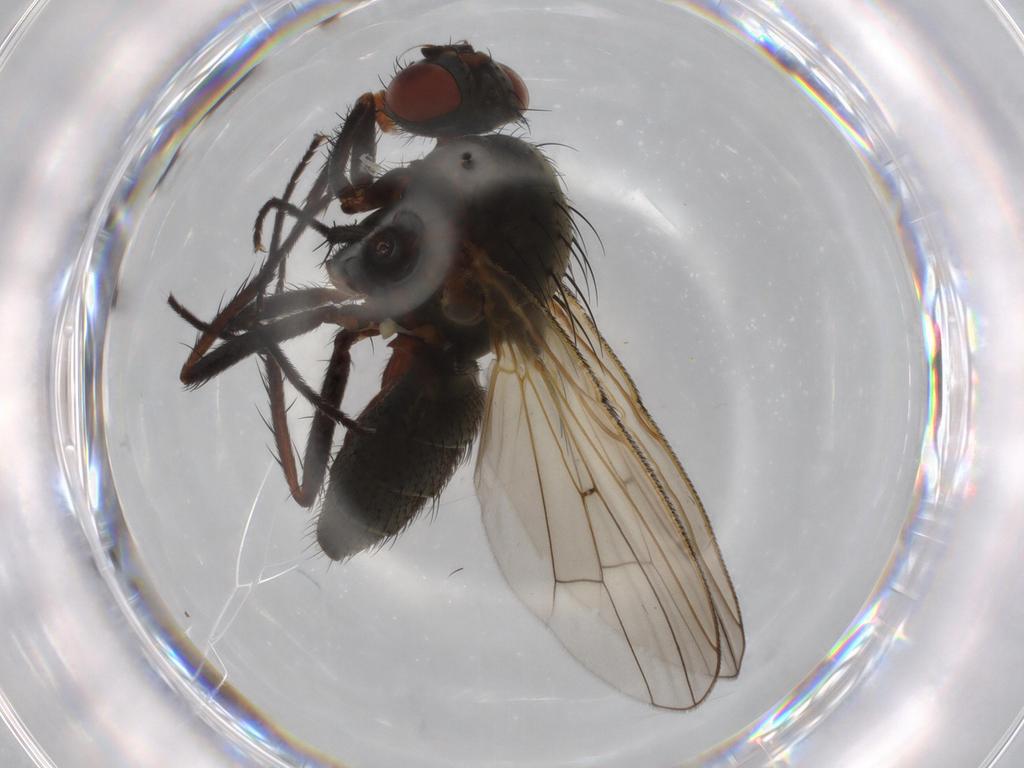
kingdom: Animalia
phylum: Arthropoda
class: Insecta
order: Diptera
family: Anthomyiidae
